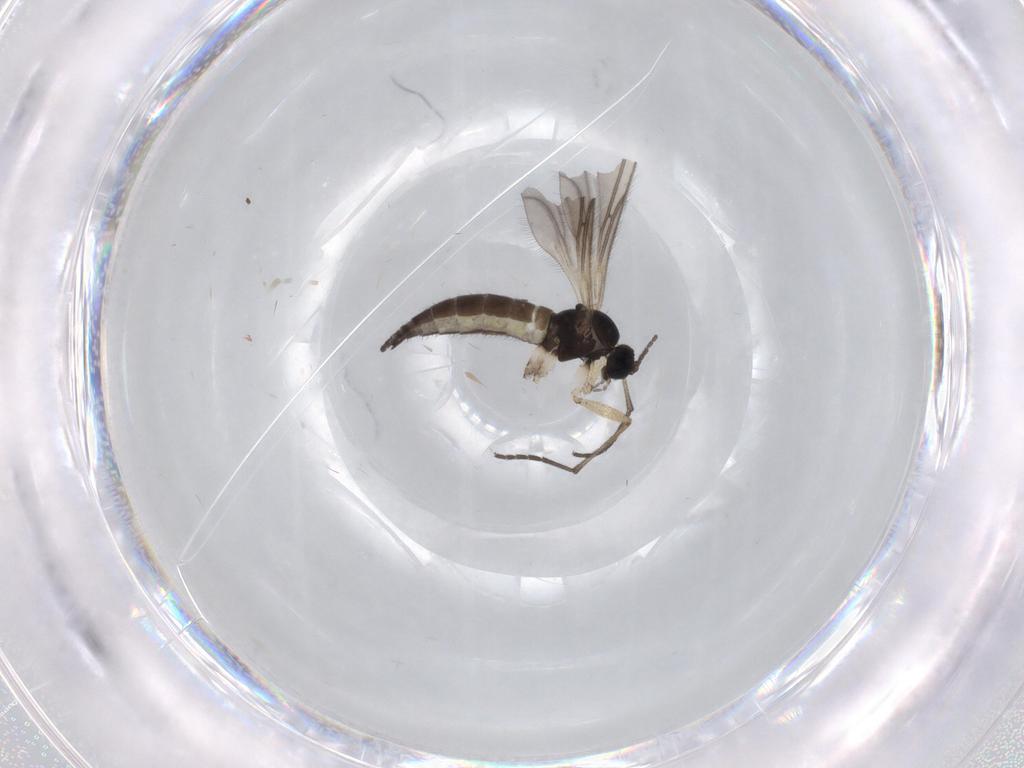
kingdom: Animalia
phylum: Arthropoda
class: Insecta
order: Diptera
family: Sciaridae
